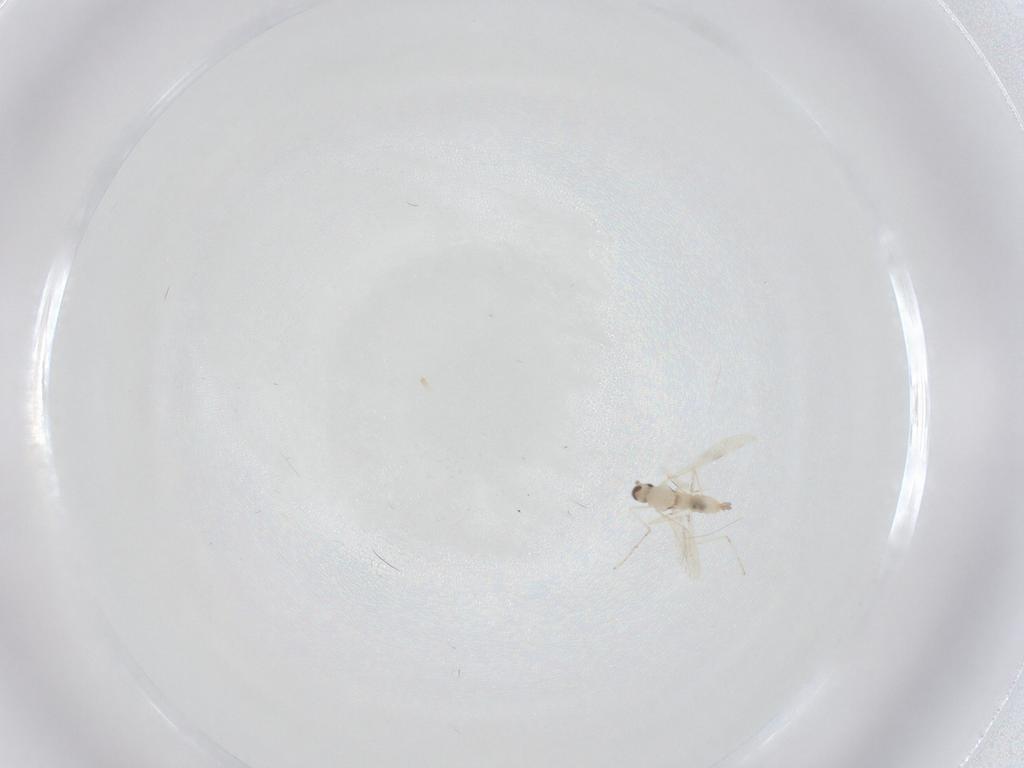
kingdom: Animalia
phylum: Arthropoda
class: Insecta
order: Diptera
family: Cecidomyiidae
